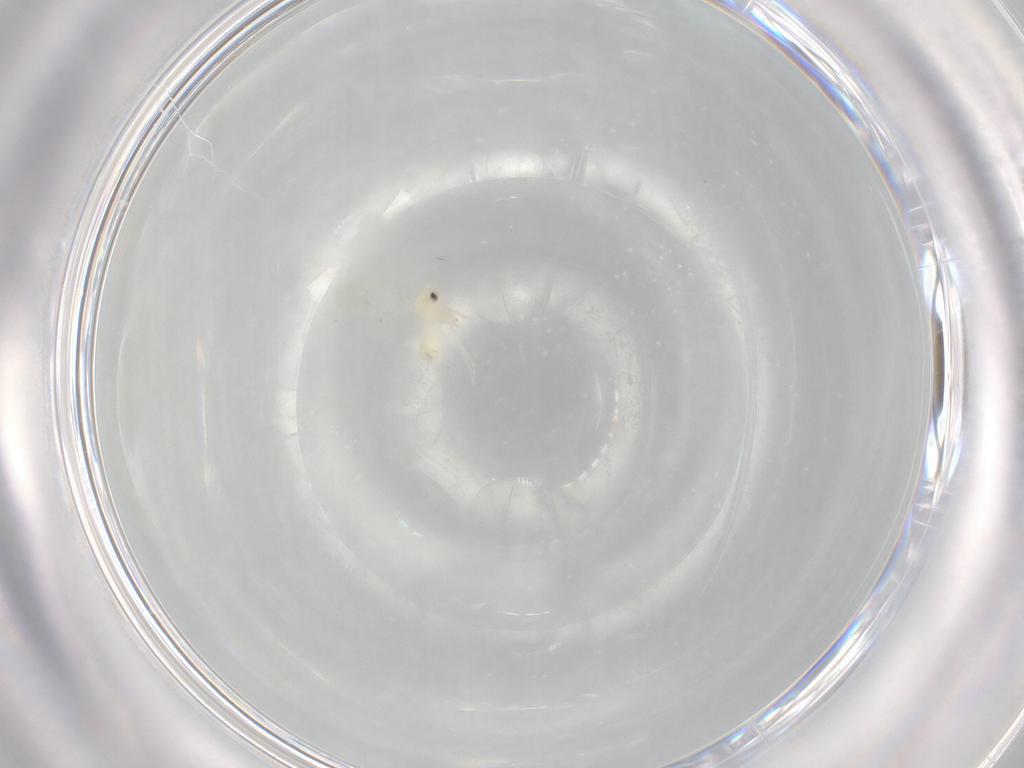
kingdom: Animalia
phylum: Arthropoda
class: Insecta
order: Hemiptera
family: Aleyrodidae
